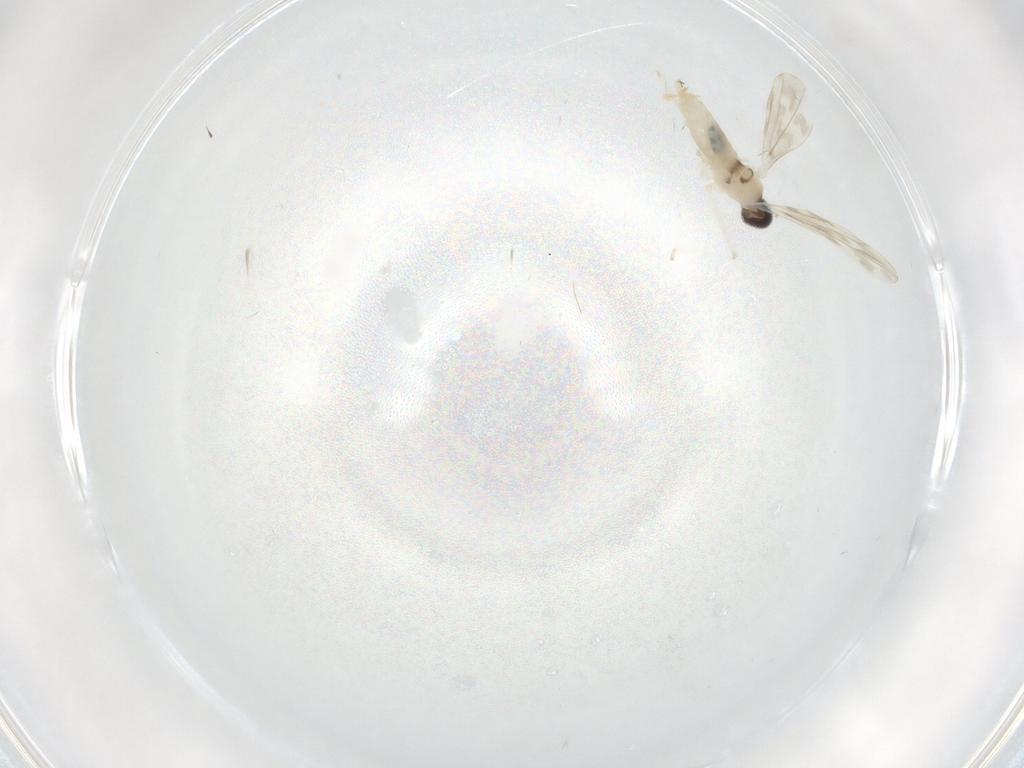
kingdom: Animalia
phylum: Arthropoda
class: Insecta
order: Diptera
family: Cecidomyiidae
